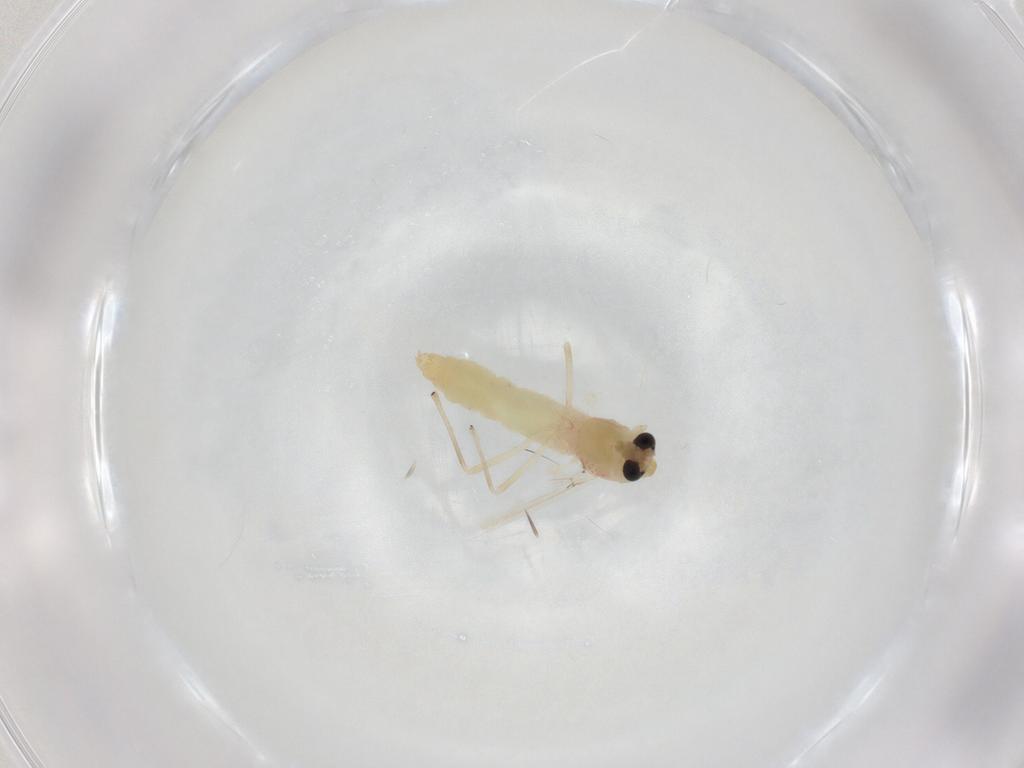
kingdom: Animalia
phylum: Arthropoda
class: Insecta
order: Diptera
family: Chironomidae
